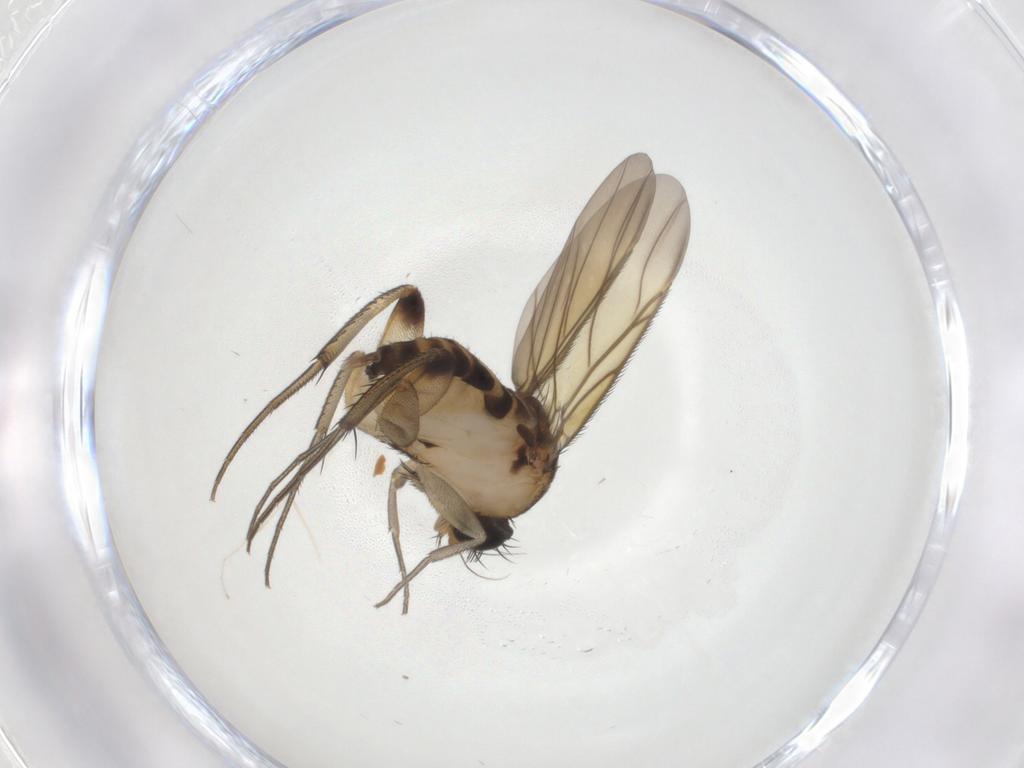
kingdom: Animalia
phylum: Arthropoda
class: Insecta
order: Diptera
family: Phoridae
